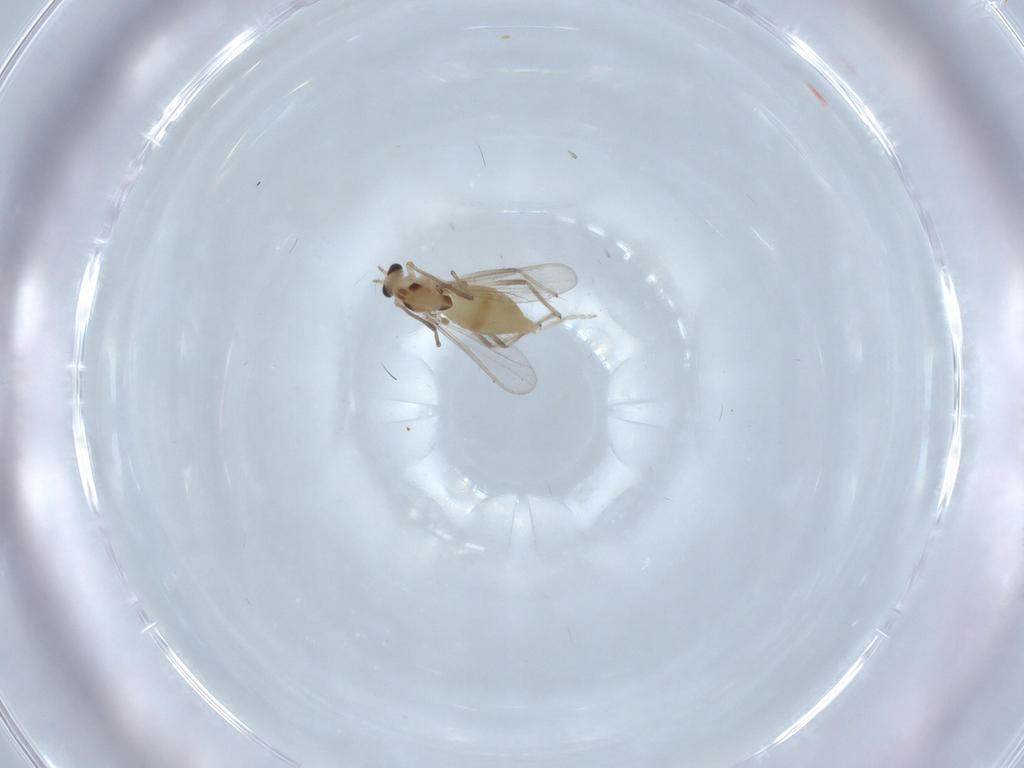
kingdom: Animalia
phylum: Arthropoda
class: Insecta
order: Diptera
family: Chironomidae
